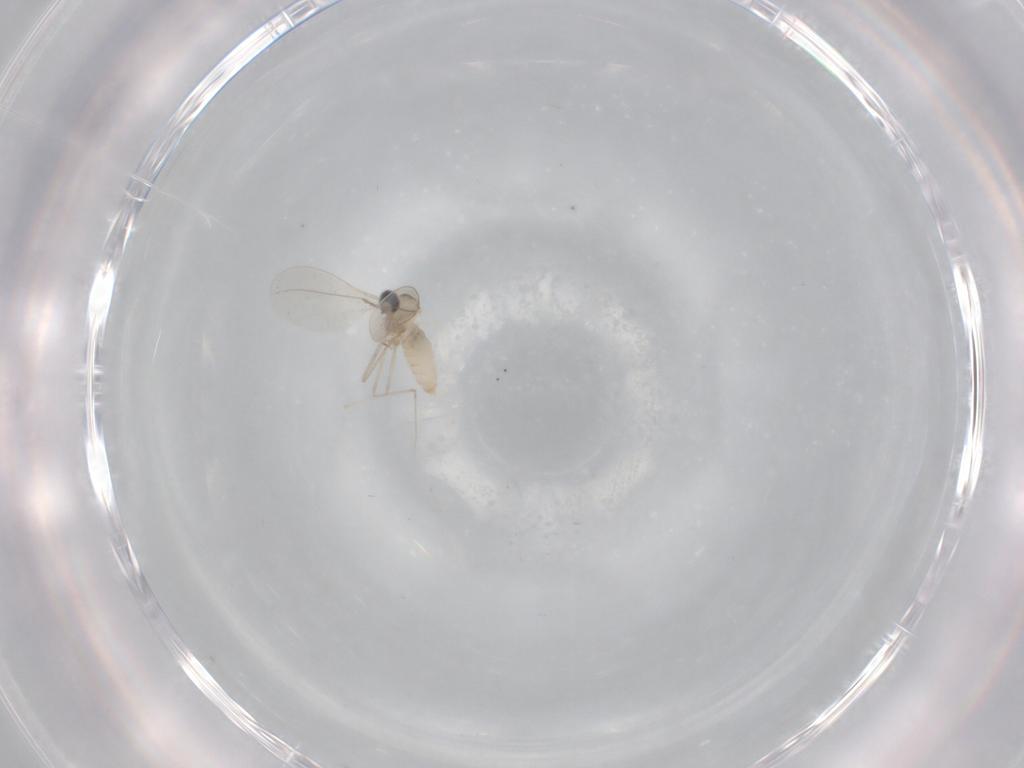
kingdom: Animalia
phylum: Arthropoda
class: Insecta
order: Diptera
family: Cecidomyiidae
